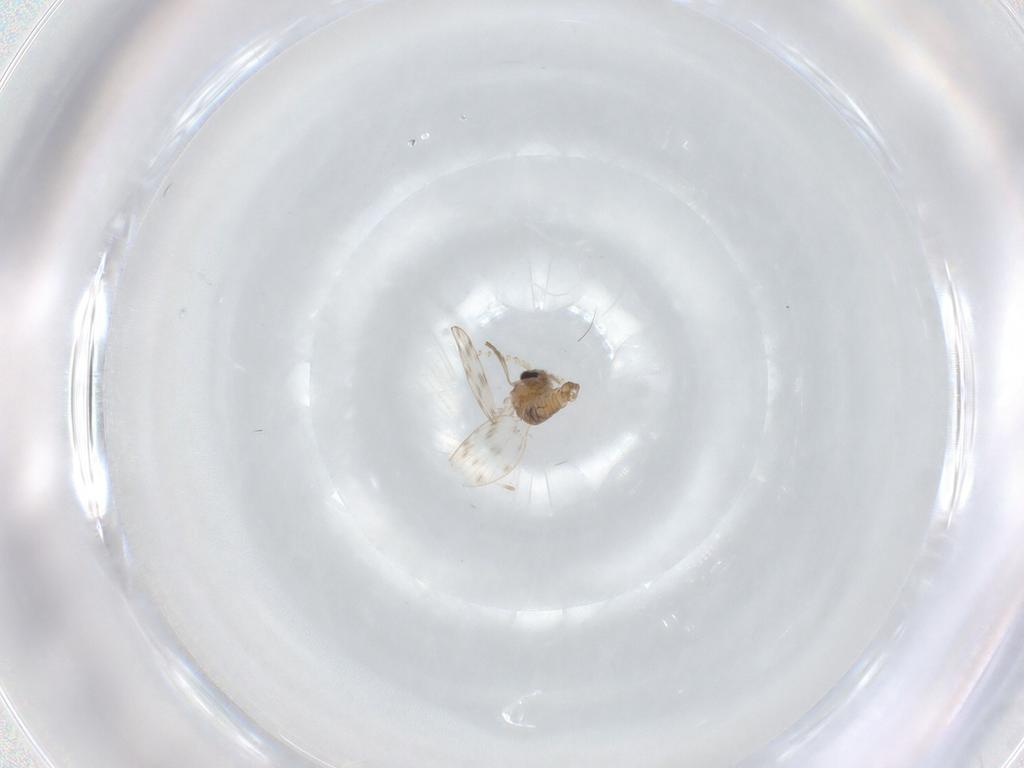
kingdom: Animalia
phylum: Arthropoda
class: Insecta
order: Diptera
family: Psychodidae
